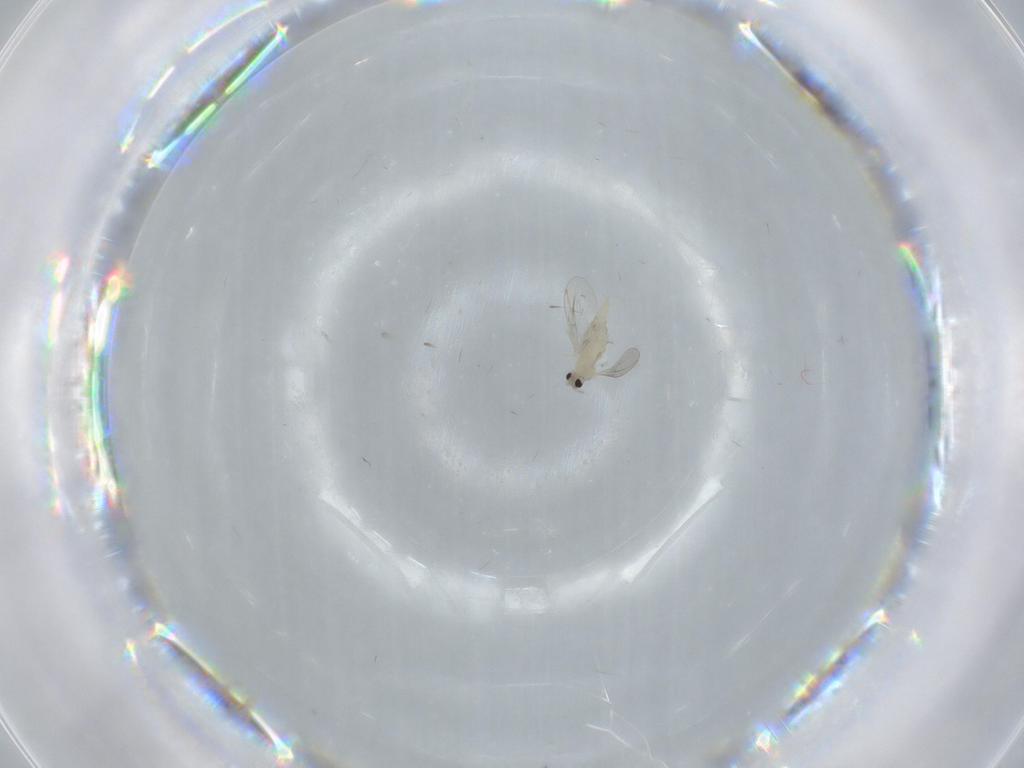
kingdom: Animalia
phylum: Arthropoda
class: Insecta
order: Diptera
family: Cecidomyiidae
